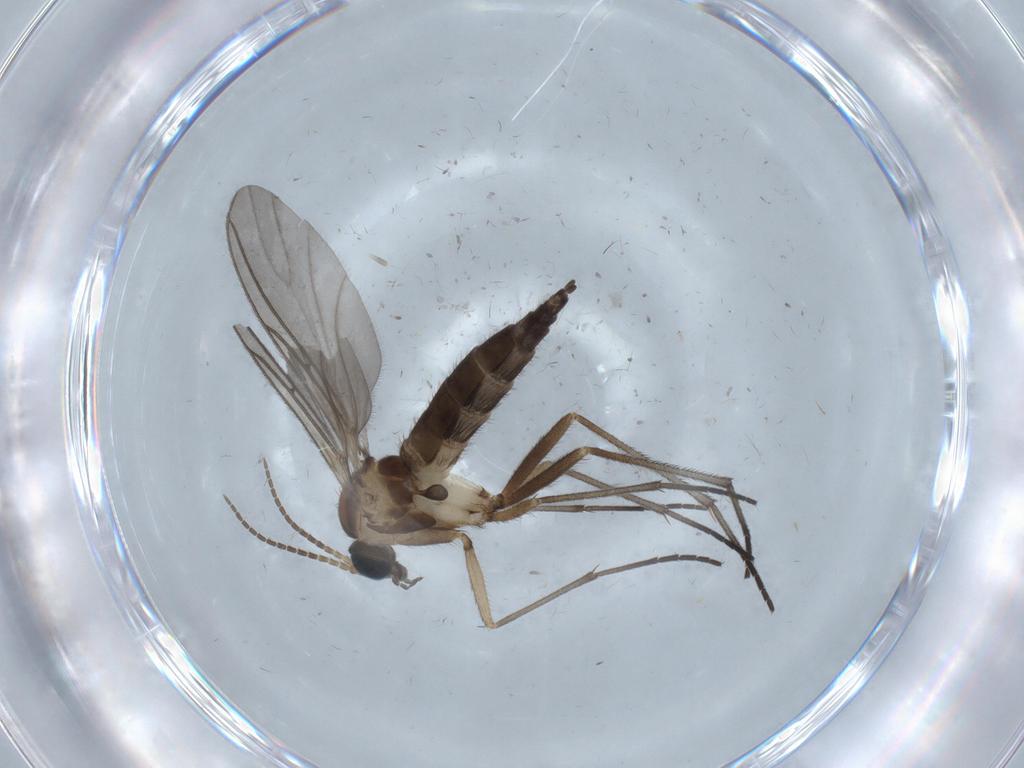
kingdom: Animalia
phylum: Arthropoda
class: Insecta
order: Diptera
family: Sciaridae
